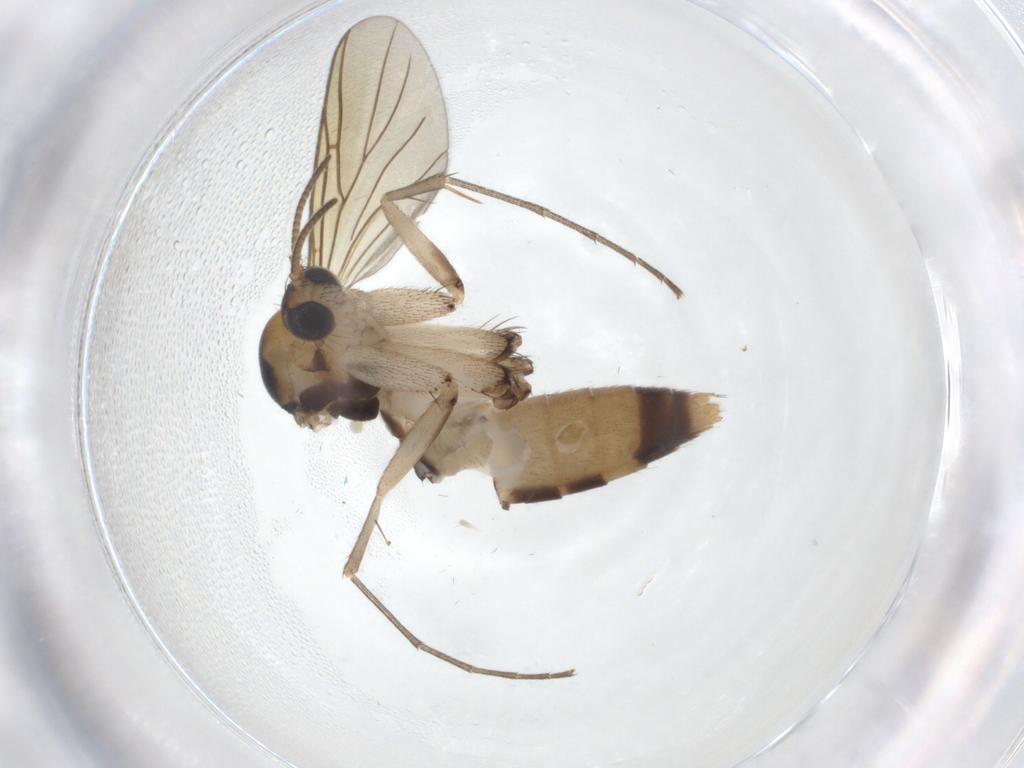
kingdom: Animalia
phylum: Arthropoda
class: Insecta
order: Diptera
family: Mycetophilidae
